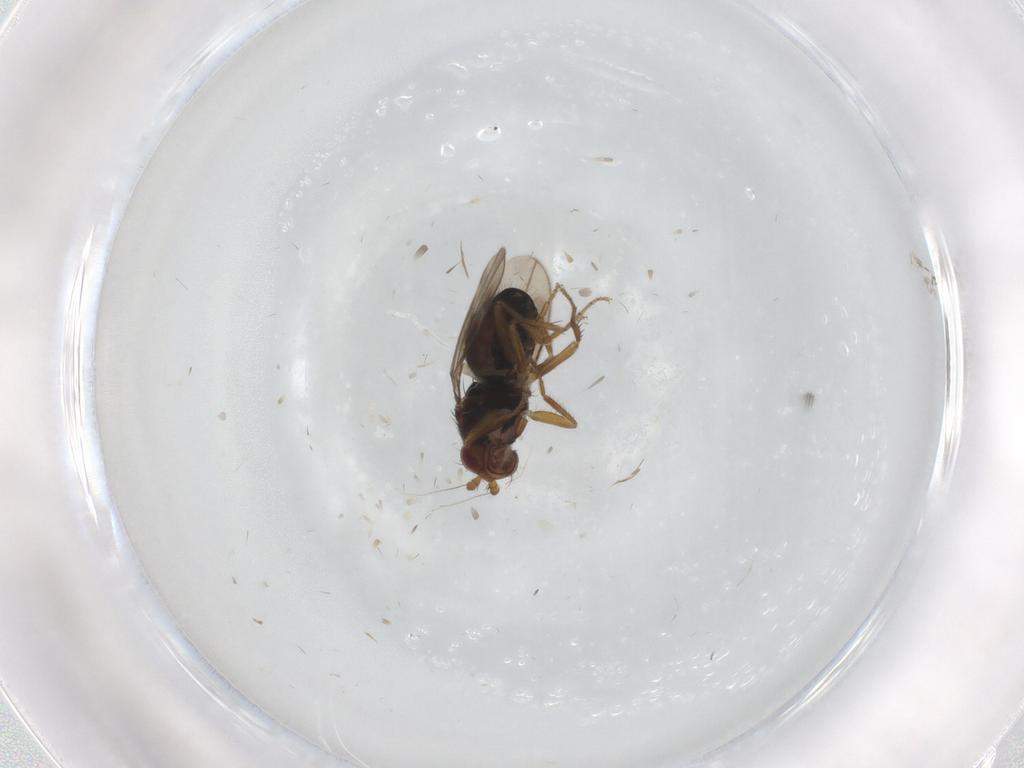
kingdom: Animalia
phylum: Arthropoda
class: Insecta
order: Diptera
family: Sphaeroceridae
